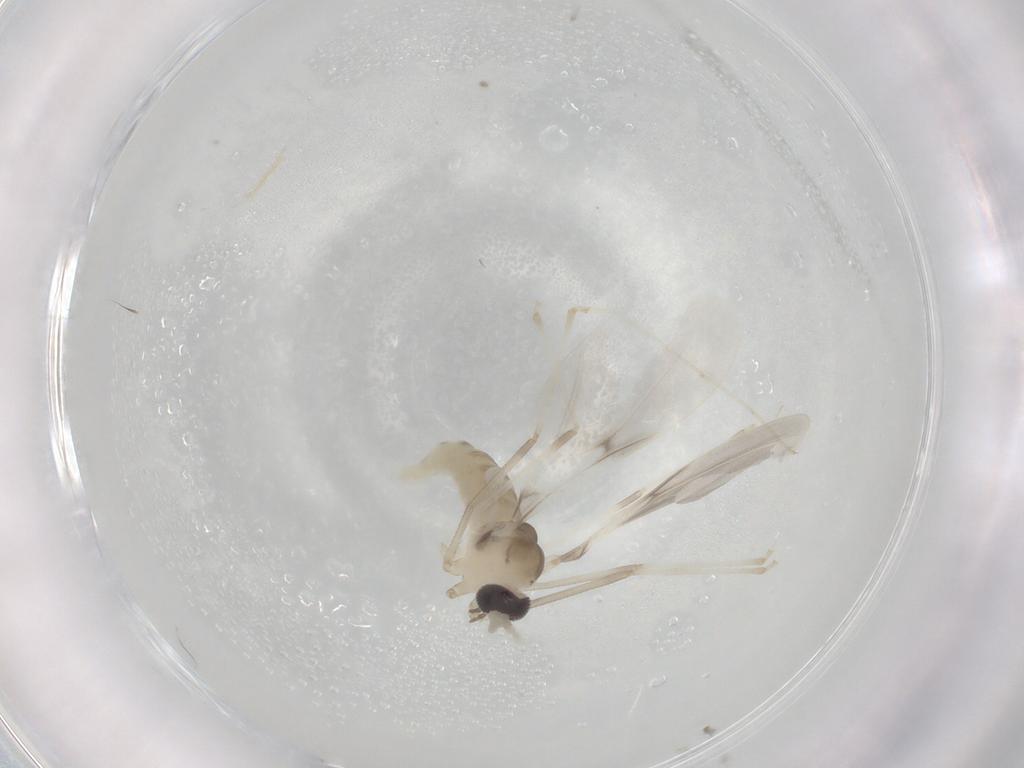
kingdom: Animalia
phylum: Arthropoda
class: Insecta
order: Diptera
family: Cecidomyiidae
